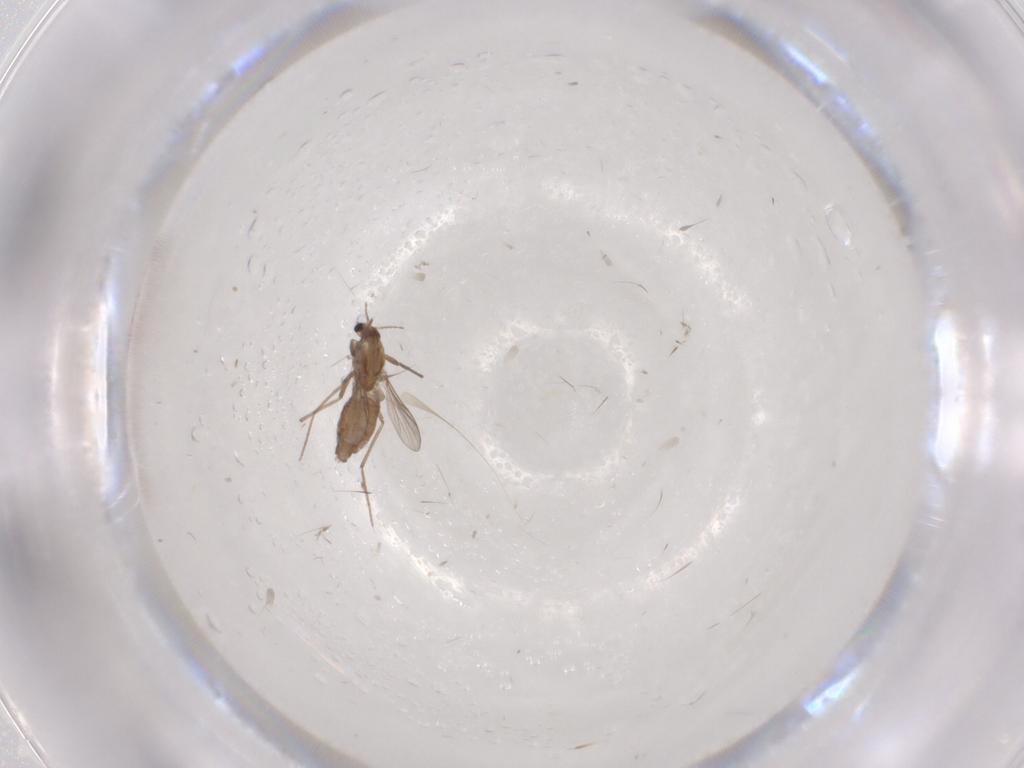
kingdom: Animalia
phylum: Arthropoda
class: Insecta
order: Diptera
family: Chironomidae
